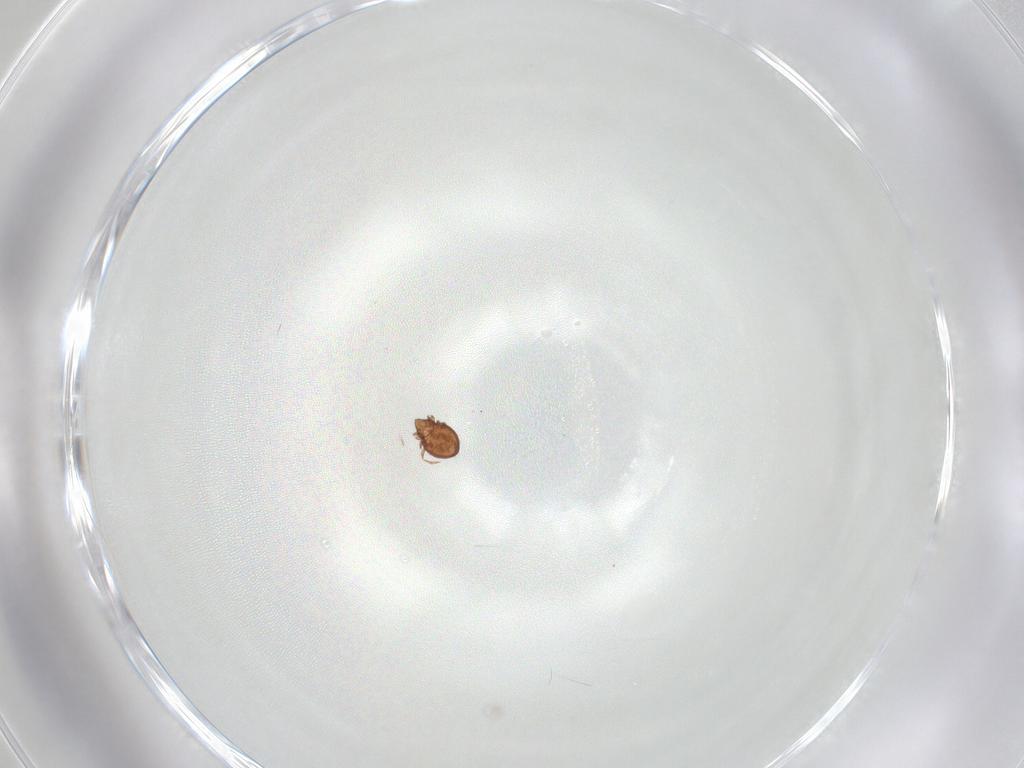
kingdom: Animalia
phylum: Arthropoda
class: Arachnida
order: Sarcoptiformes
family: Oribatulidae
